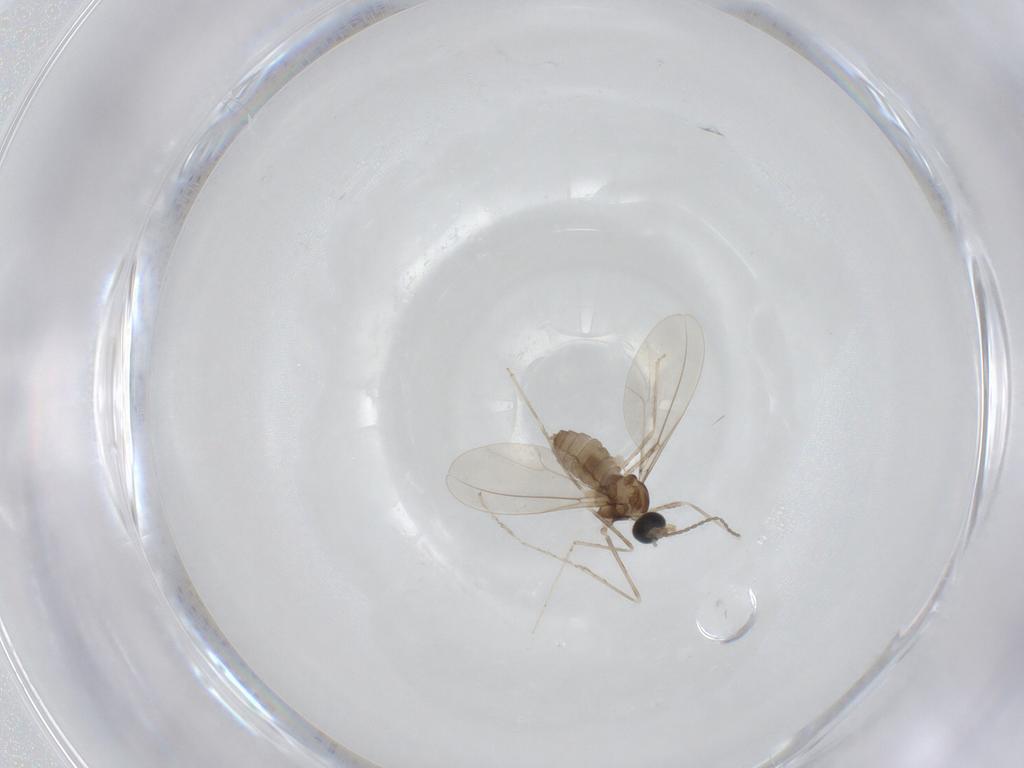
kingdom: Animalia
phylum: Arthropoda
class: Insecta
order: Diptera
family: Cecidomyiidae
